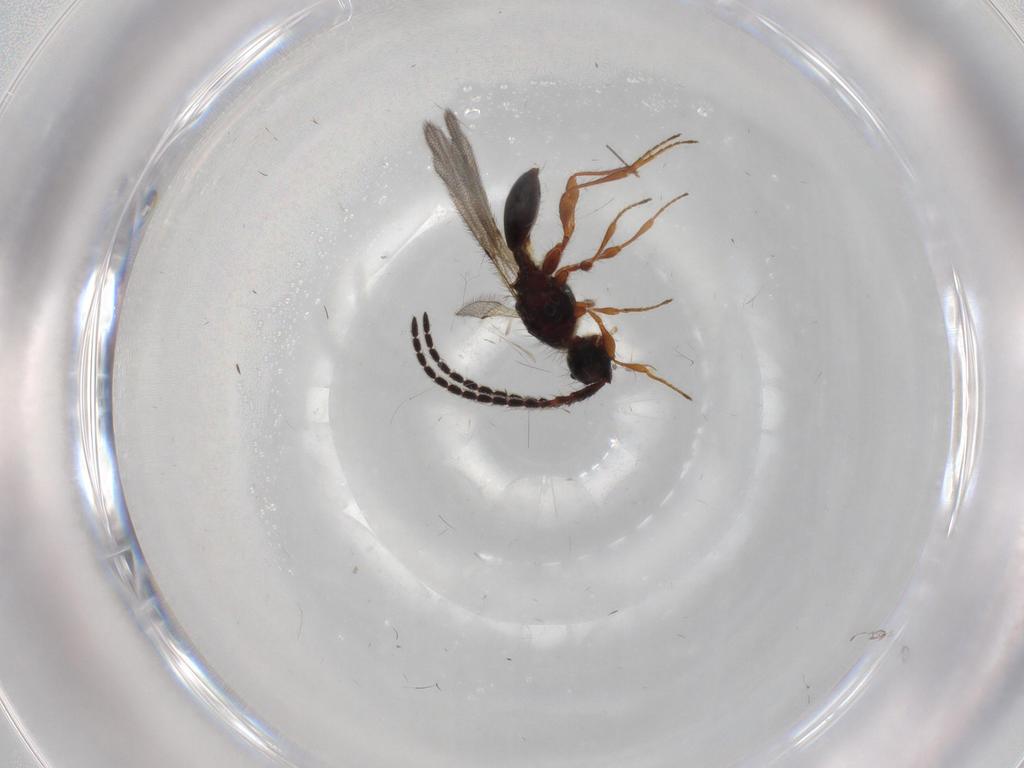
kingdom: Animalia
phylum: Arthropoda
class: Insecta
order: Hymenoptera
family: Diapriidae
